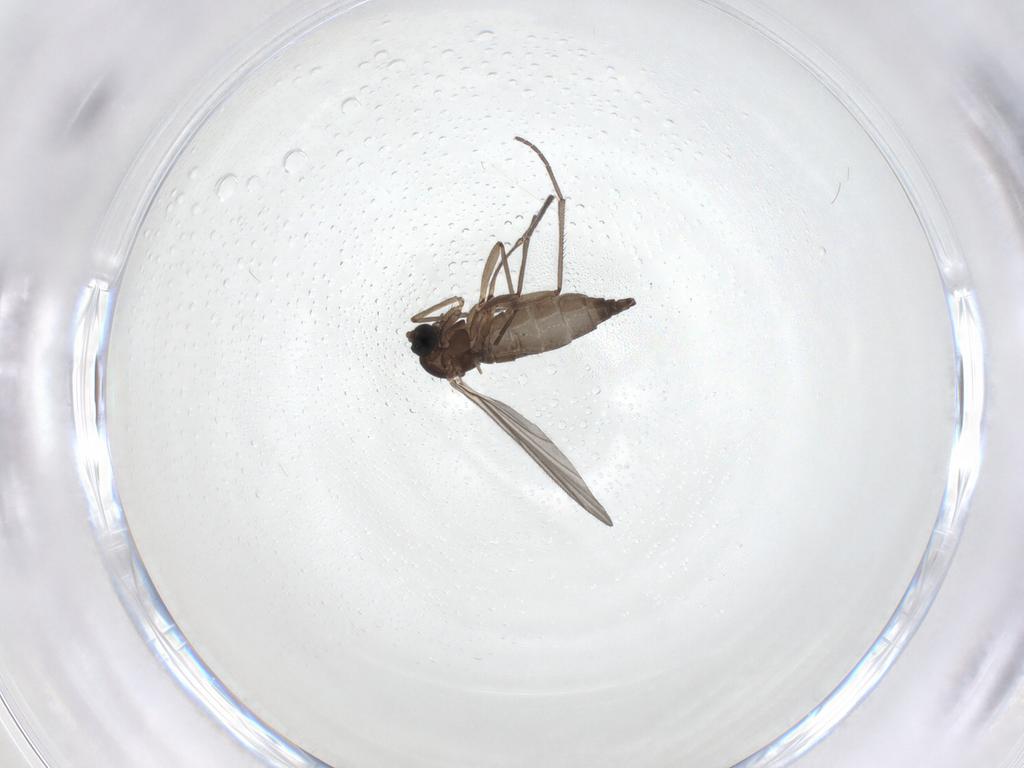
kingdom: Animalia
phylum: Arthropoda
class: Insecta
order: Diptera
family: Sciaridae
